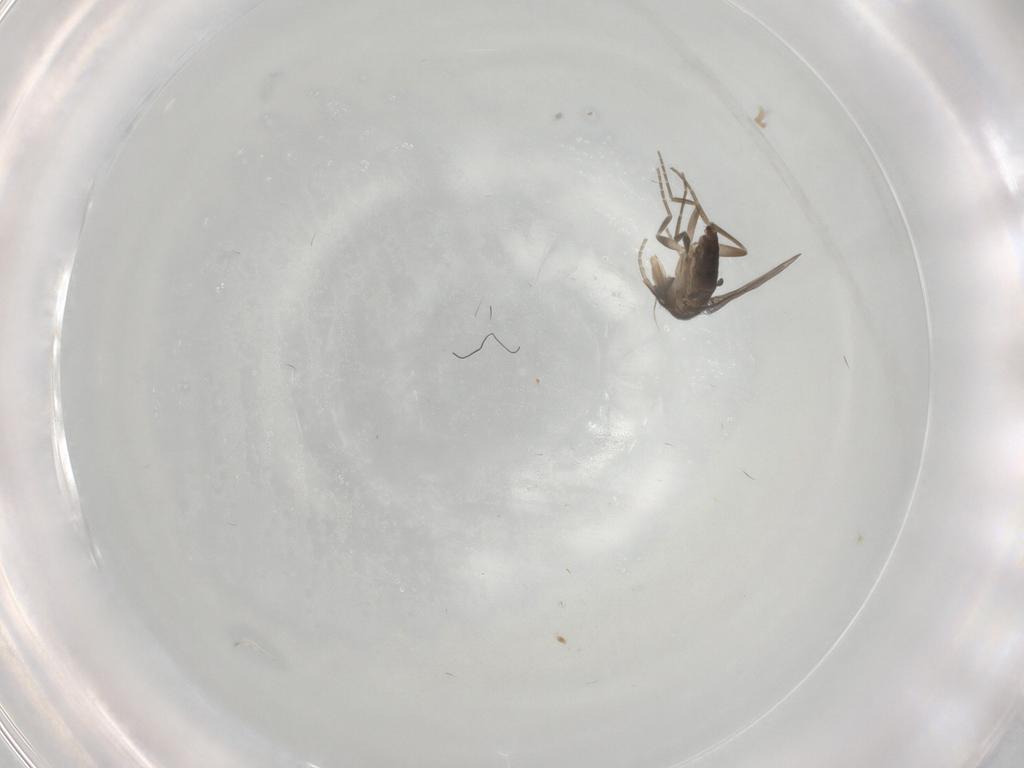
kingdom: Animalia
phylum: Arthropoda
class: Insecta
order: Diptera
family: Phoridae
